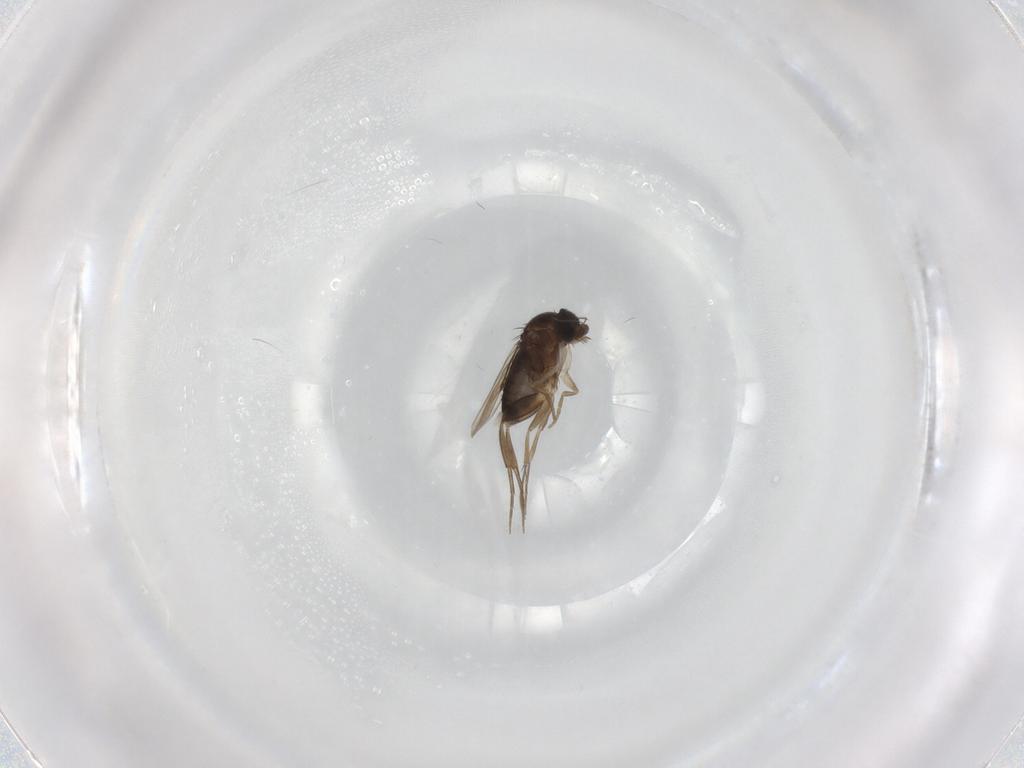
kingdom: Animalia
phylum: Arthropoda
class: Insecta
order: Diptera
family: Phoridae
